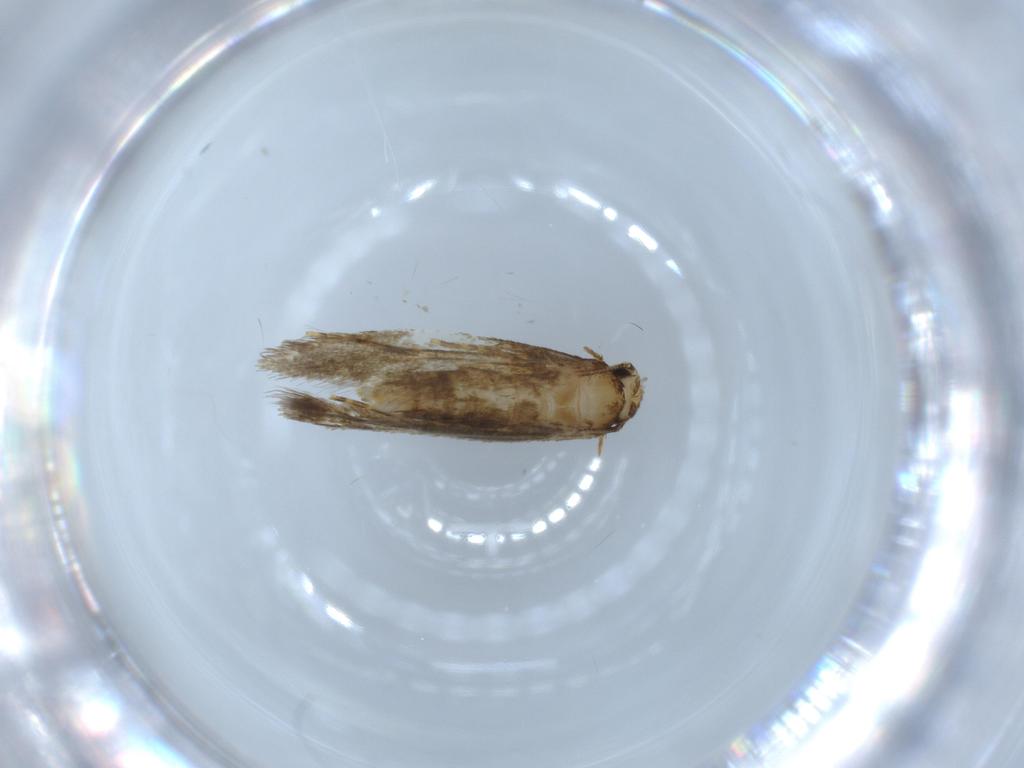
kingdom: Animalia
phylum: Arthropoda
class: Insecta
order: Lepidoptera
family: Tineidae
